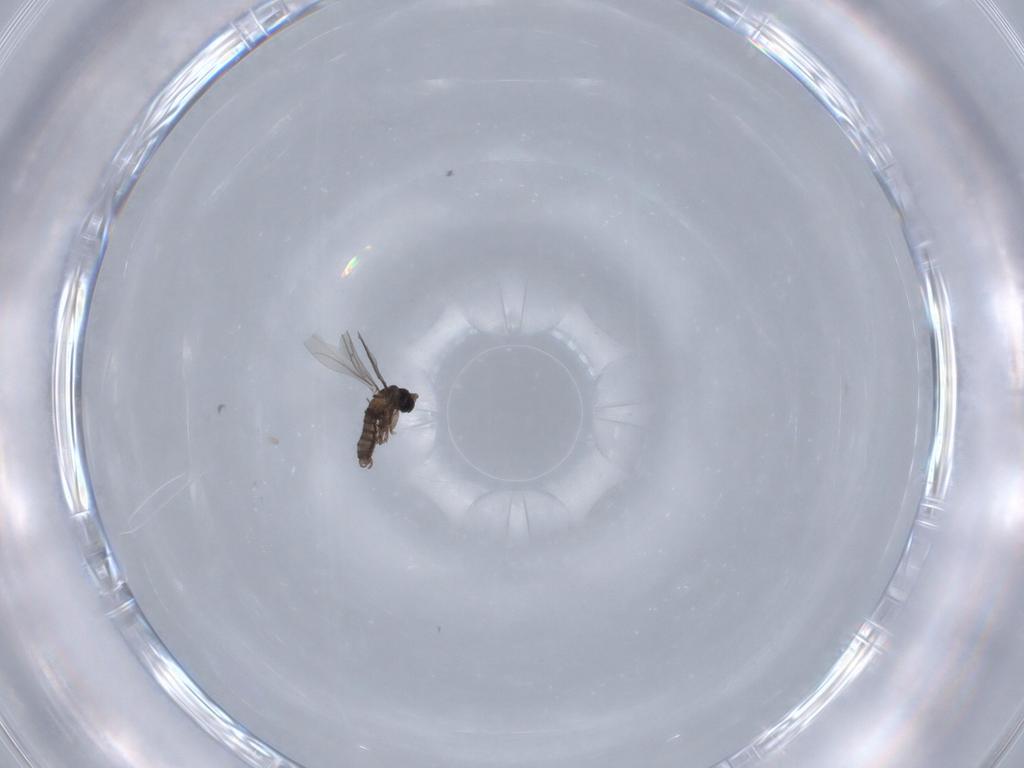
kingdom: Animalia
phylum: Arthropoda
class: Insecta
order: Diptera
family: Sciaridae
